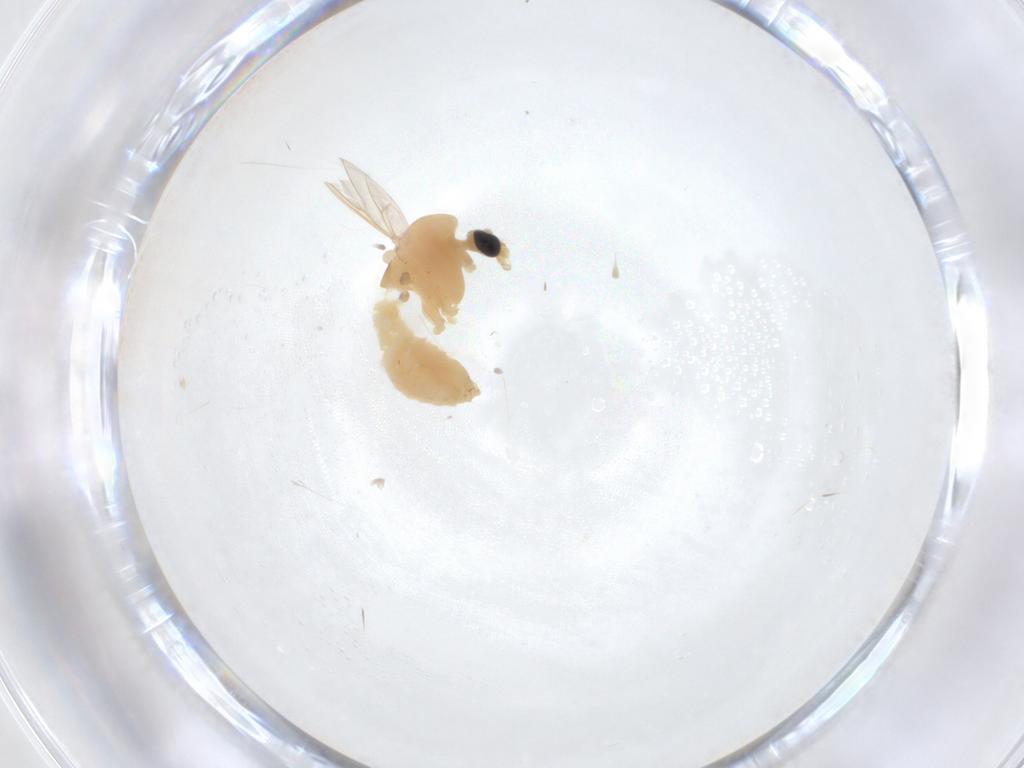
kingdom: Animalia
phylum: Arthropoda
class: Insecta
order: Diptera
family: Chironomidae
